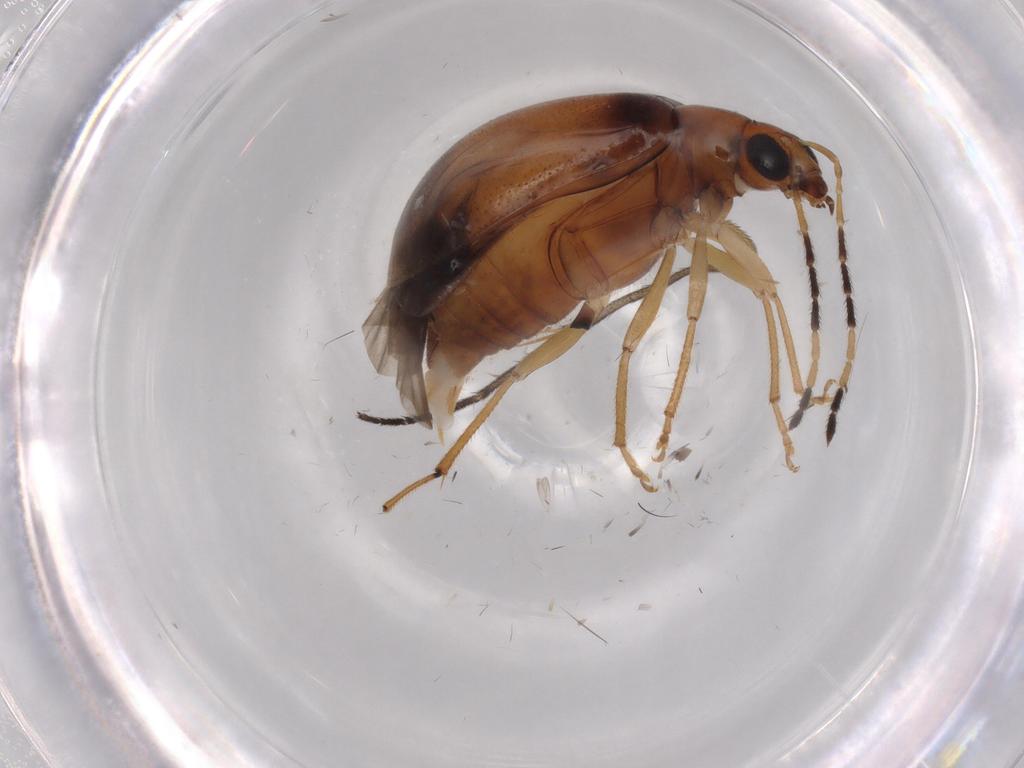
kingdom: Animalia
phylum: Arthropoda
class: Insecta
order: Coleoptera
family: Chrysomelidae
